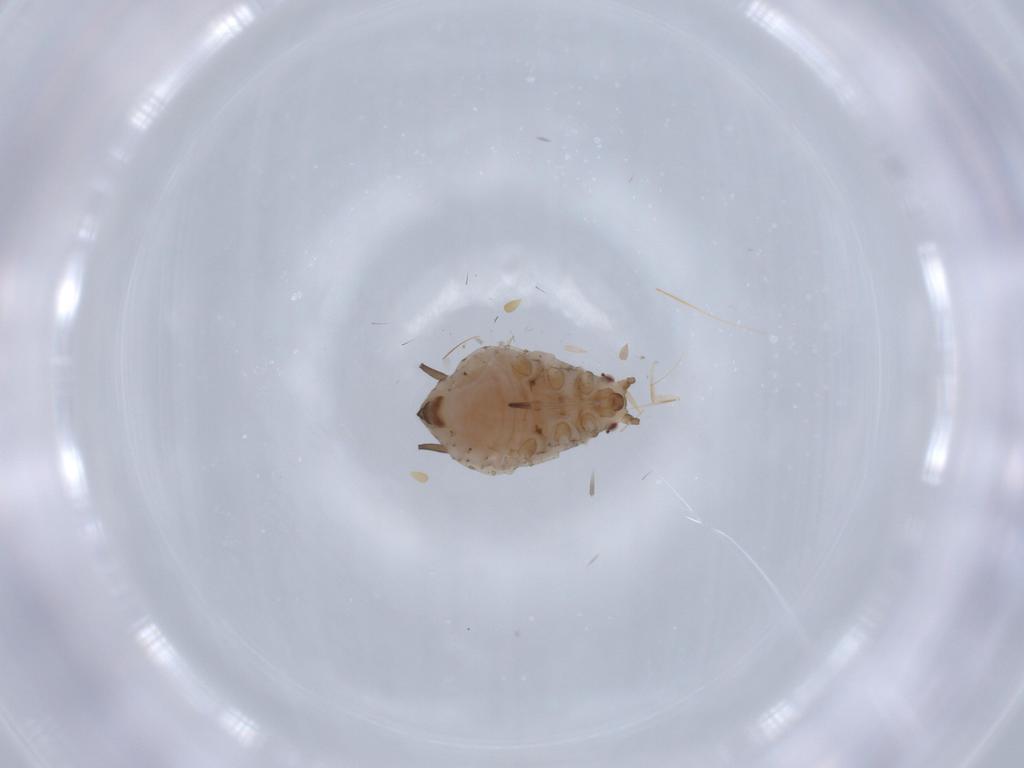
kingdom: Animalia
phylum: Arthropoda
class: Insecta
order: Hemiptera
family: Aphididae
